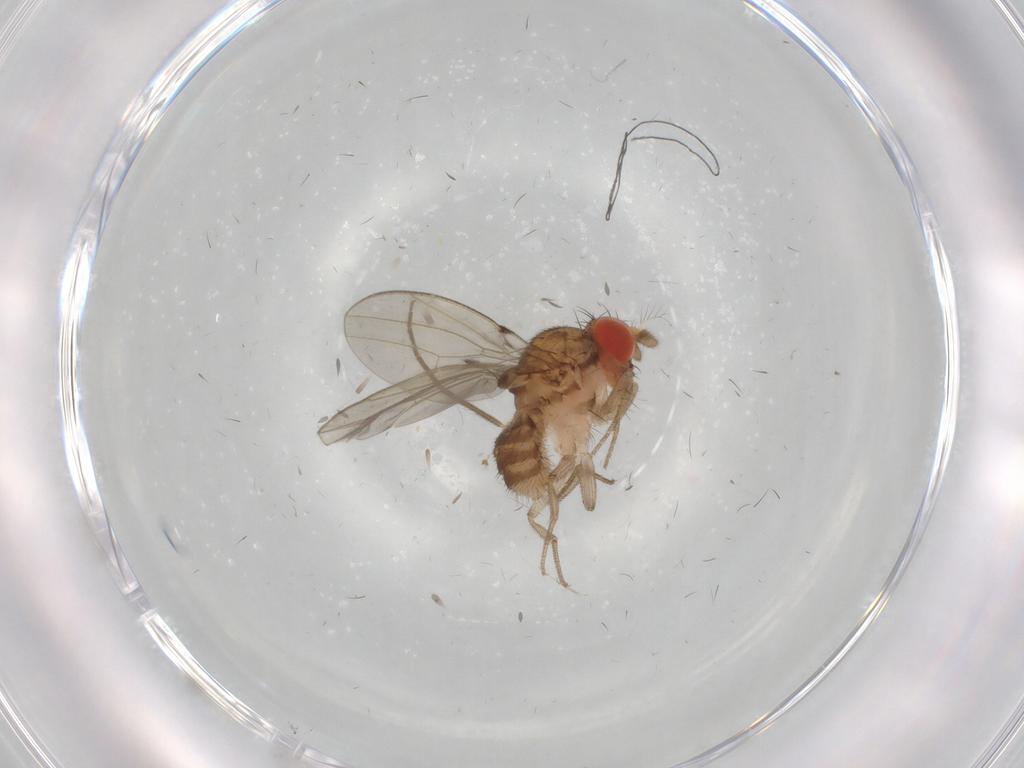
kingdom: Animalia
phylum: Arthropoda
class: Insecta
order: Diptera
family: Drosophilidae
